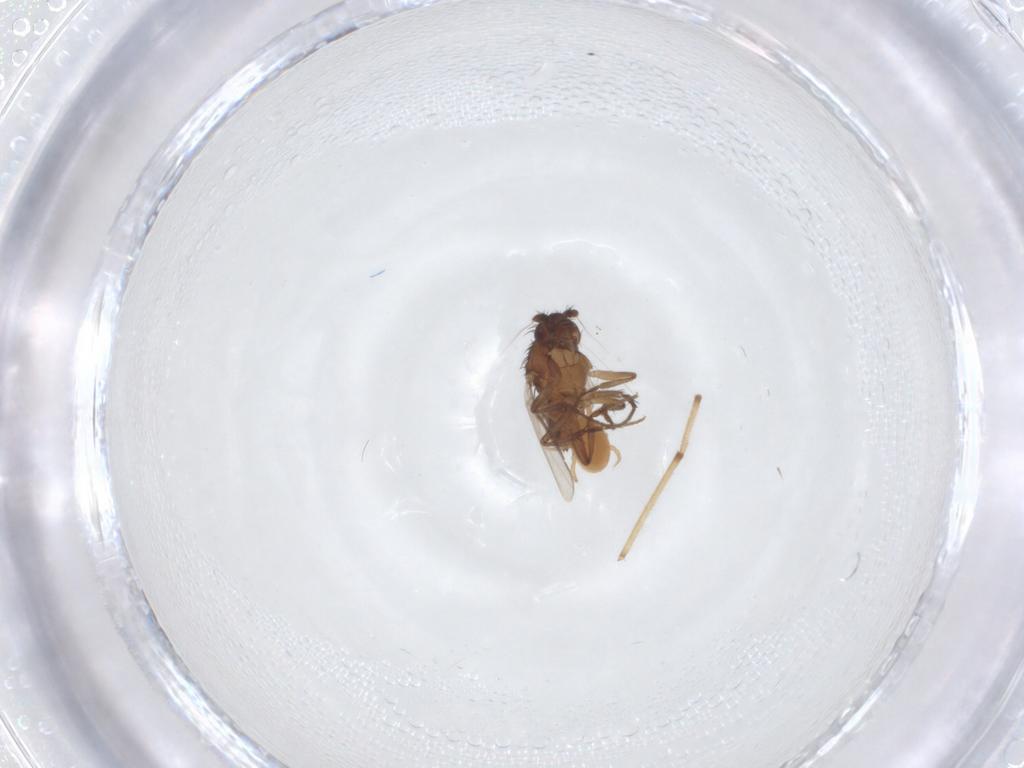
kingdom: Animalia
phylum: Arthropoda
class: Insecta
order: Diptera
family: Sphaeroceridae
